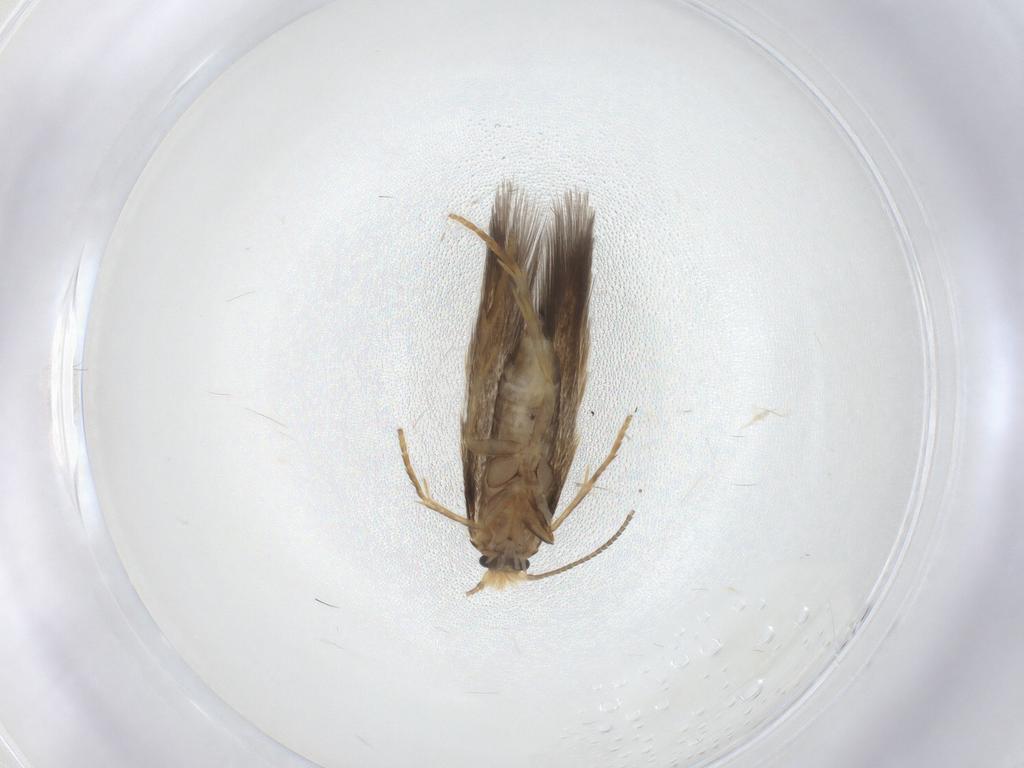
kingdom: Animalia
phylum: Arthropoda
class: Insecta
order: Lepidoptera
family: Nepticulidae
